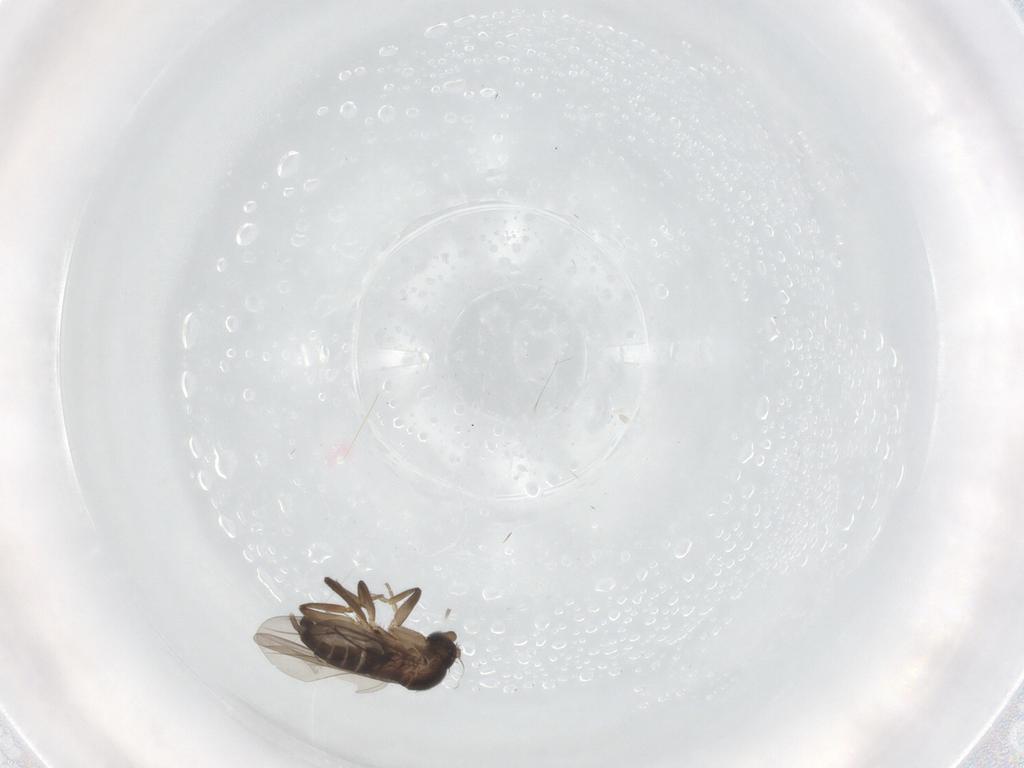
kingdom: Animalia
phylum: Arthropoda
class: Insecta
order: Diptera
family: Phoridae
